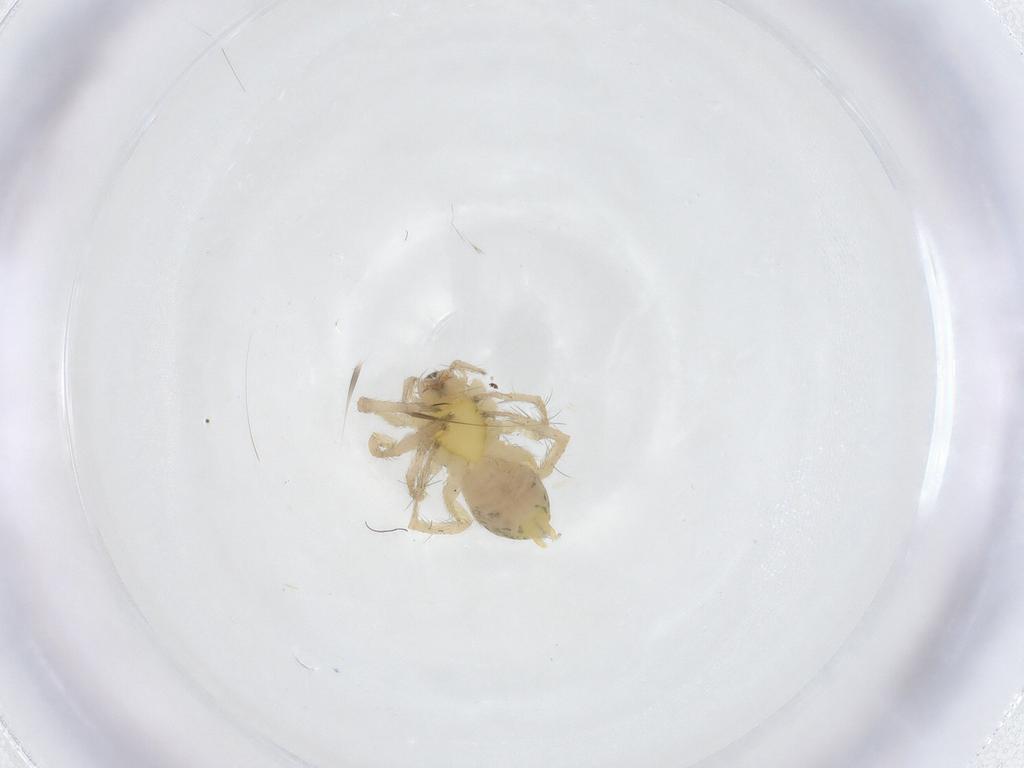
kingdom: Animalia
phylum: Arthropoda
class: Arachnida
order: Araneae
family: Anyphaenidae
